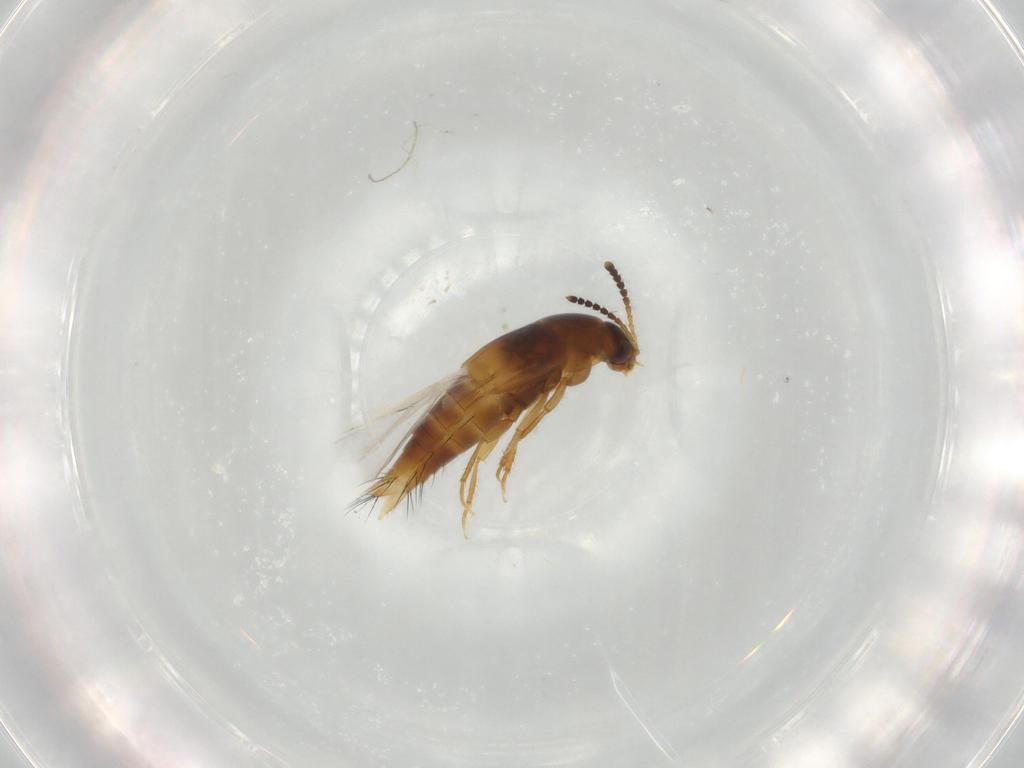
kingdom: Animalia
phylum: Arthropoda
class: Insecta
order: Coleoptera
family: Staphylinidae
